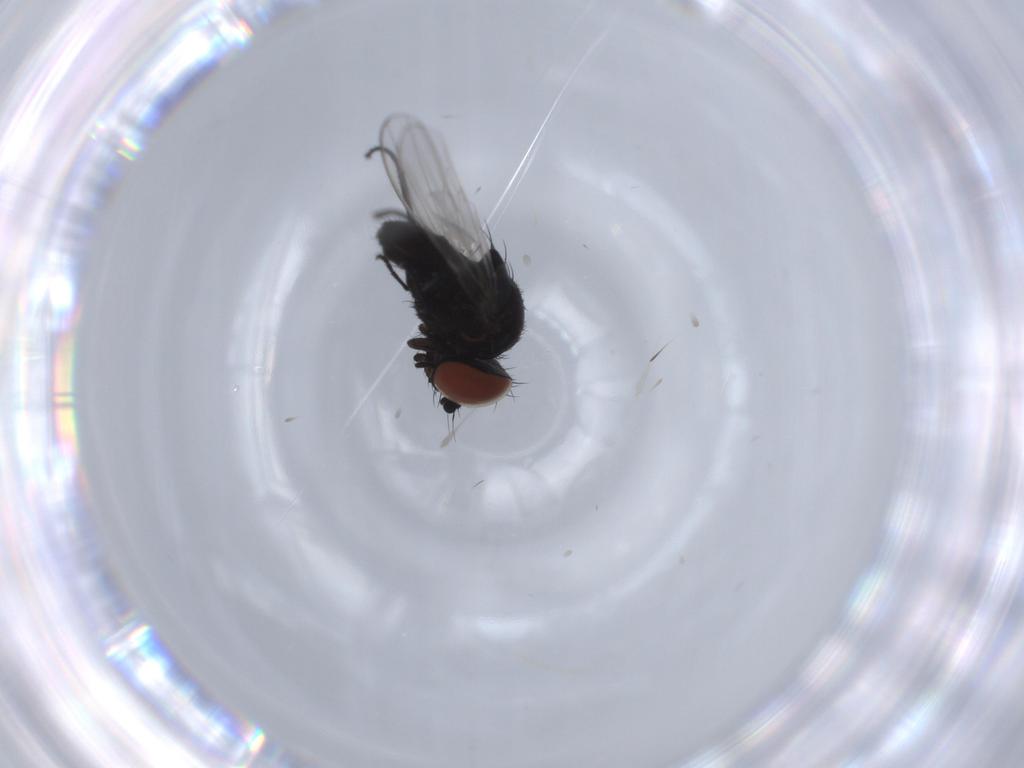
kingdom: Animalia
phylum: Arthropoda
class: Insecta
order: Diptera
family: Milichiidae
